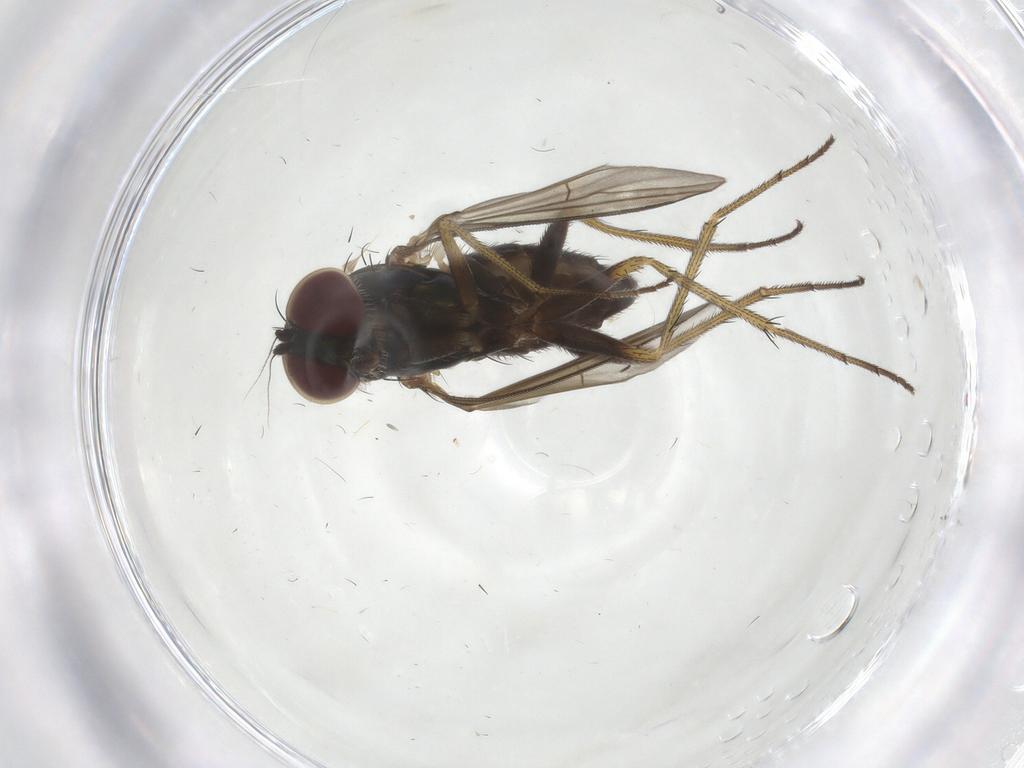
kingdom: Animalia
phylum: Arthropoda
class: Insecta
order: Diptera
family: Dolichopodidae
